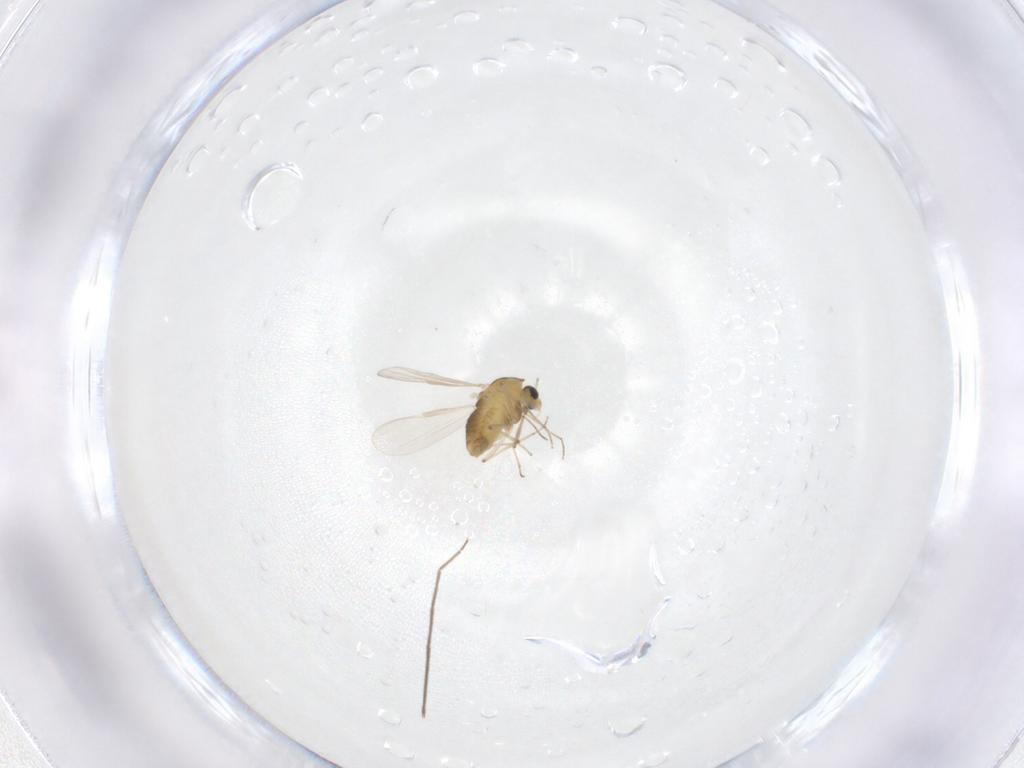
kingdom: Animalia
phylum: Arthropoda
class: Insecta
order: Diptera
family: Chironomidae
